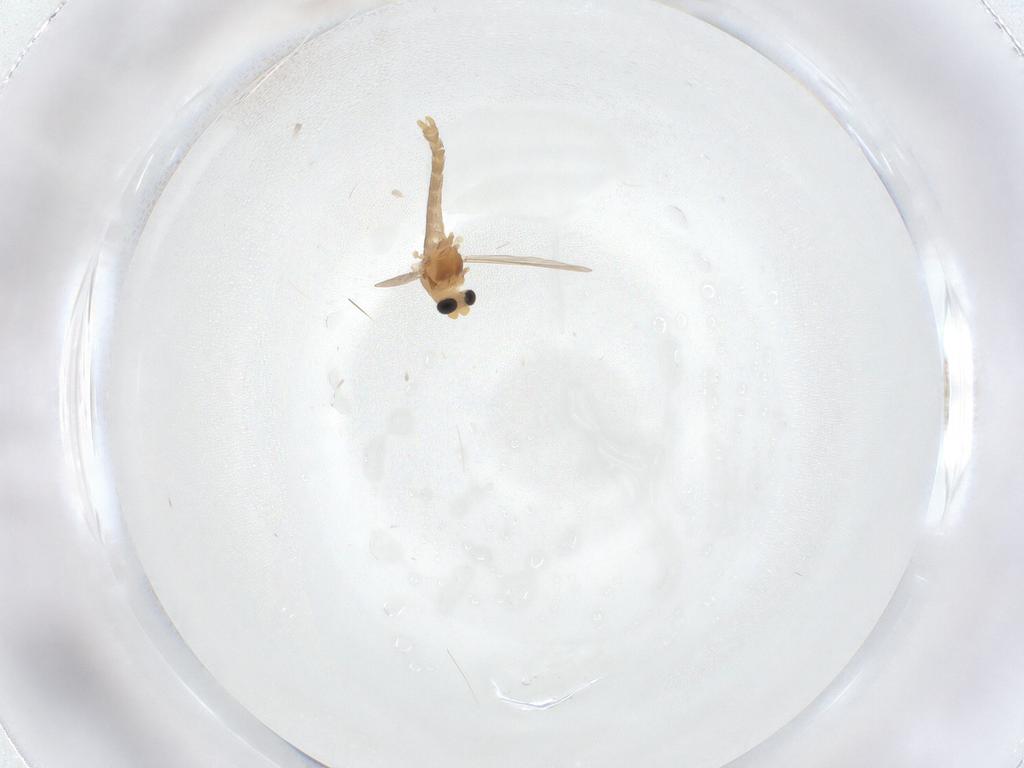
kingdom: Animalia
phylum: Arthropoda
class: Insecta
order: Diptera
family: Chironomidae
